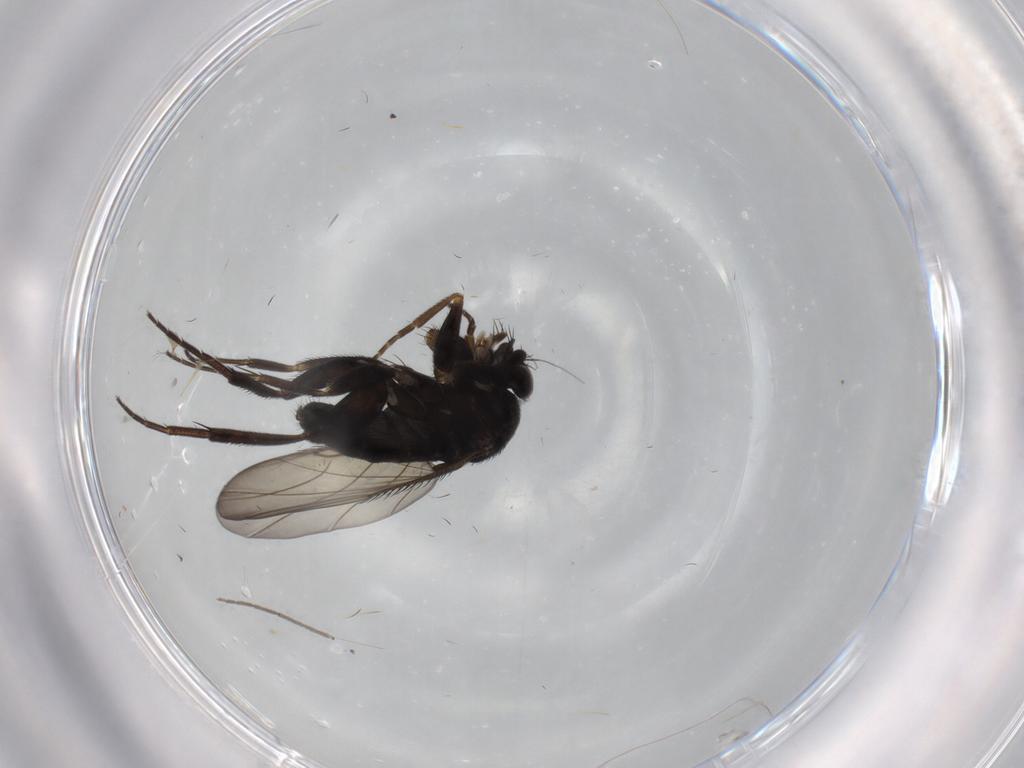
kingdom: Animalia
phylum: Arthropoda
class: Insecta
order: Diptera
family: Phoridae
